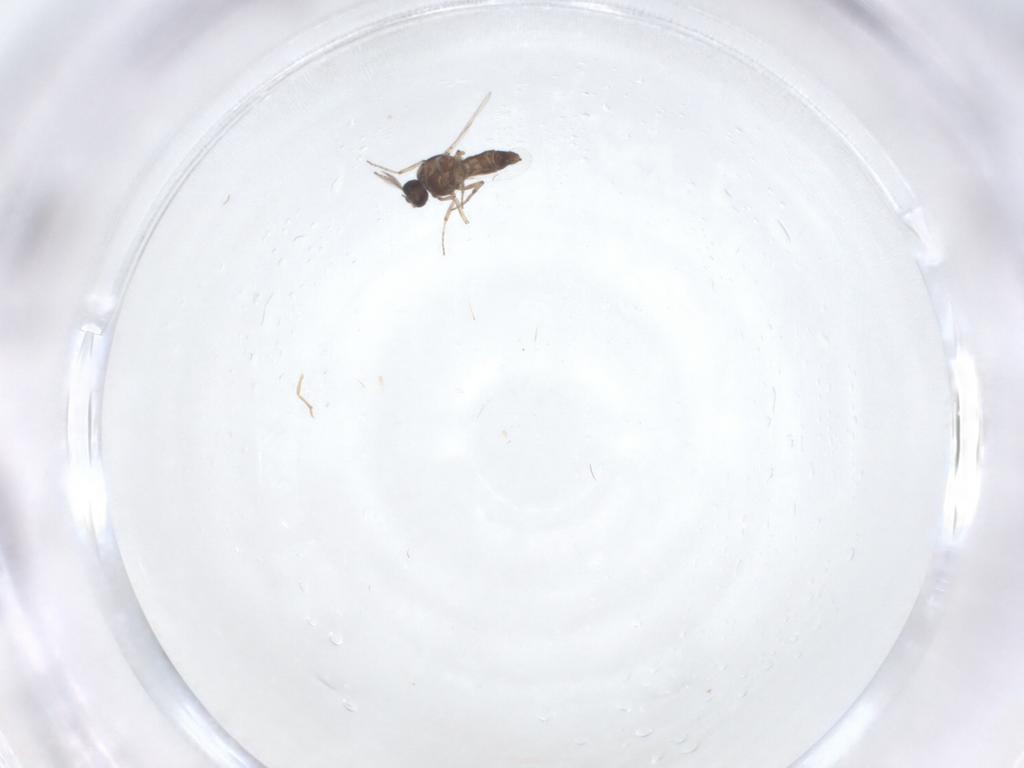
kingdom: Animalia
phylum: Arthropoda
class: Insecta
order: Diptera
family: Ceratopogonidae
